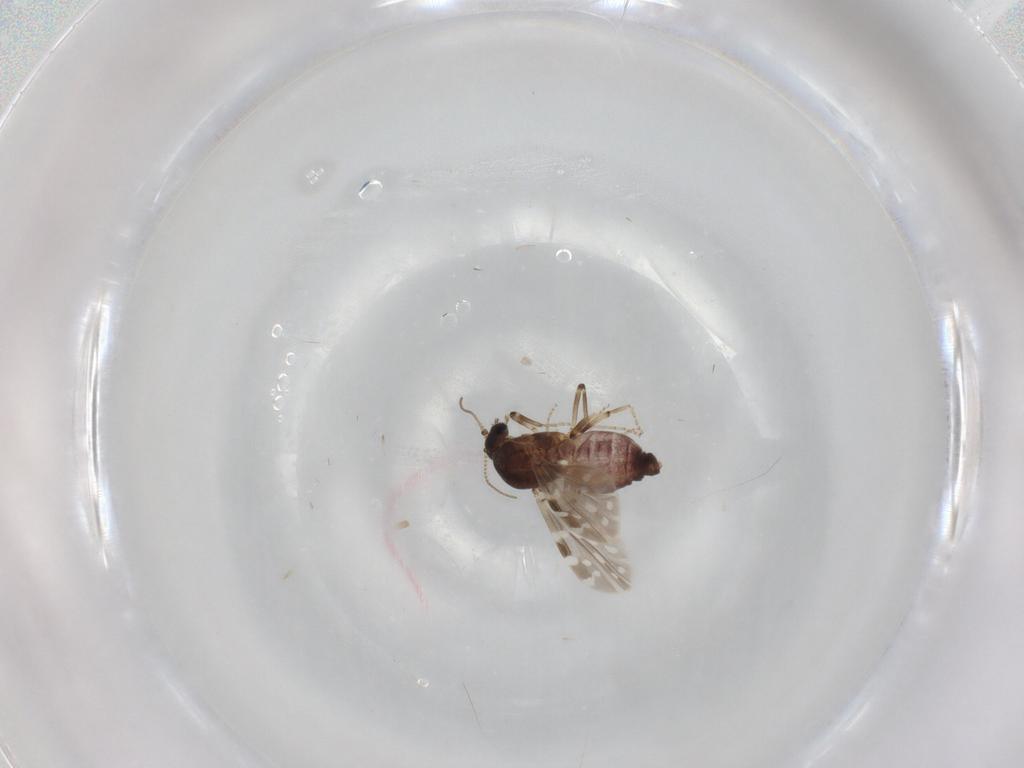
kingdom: Animalia
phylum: Arthropoda
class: Insecta
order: Diptera
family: Ceratopogonidae
